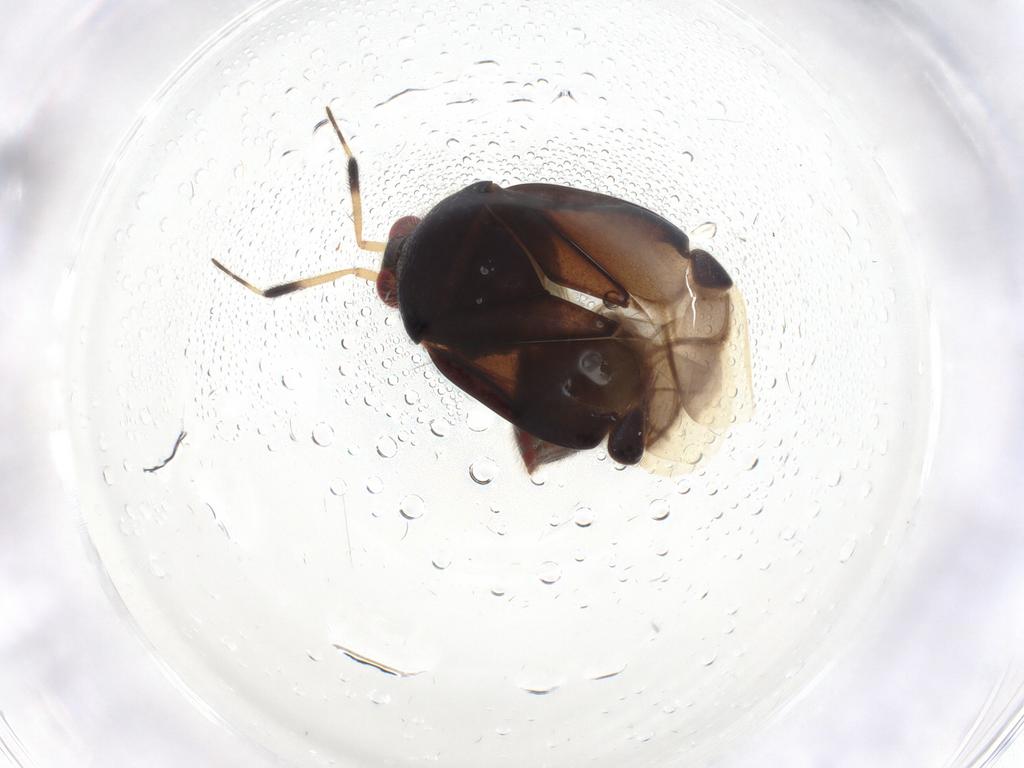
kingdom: Animalia
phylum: Arthropoda
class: Insecta
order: Hemiptera
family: Miridae
